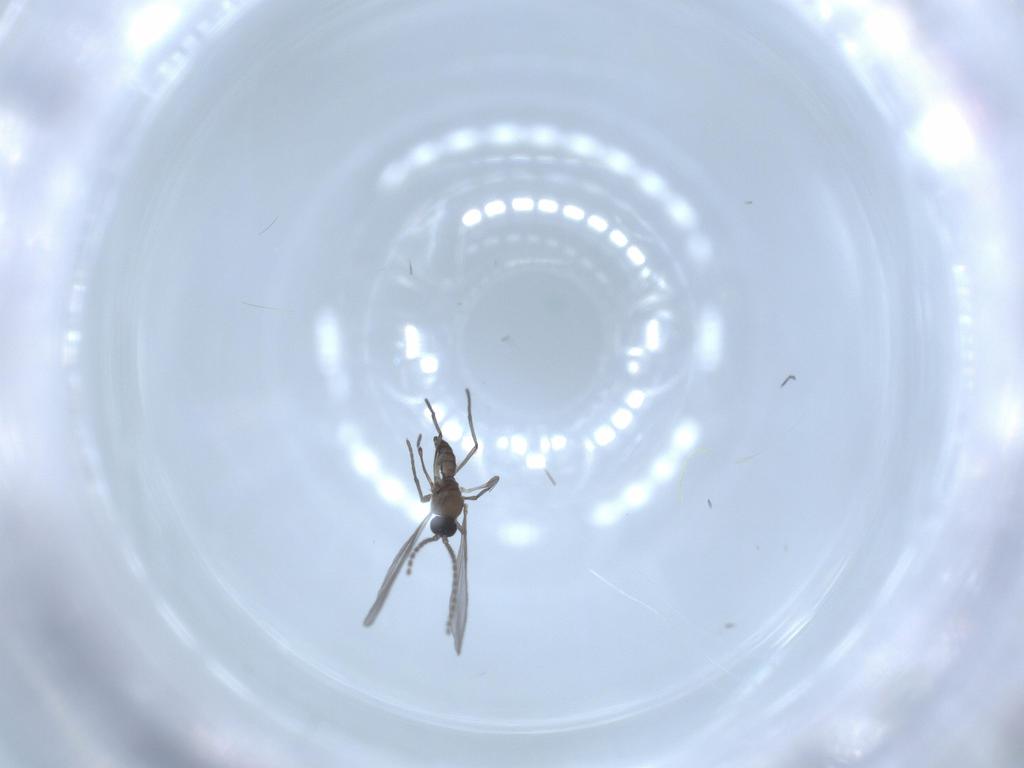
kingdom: Animalia
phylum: Arthropoda
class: Insecta
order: Diptera
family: Sciaridae
